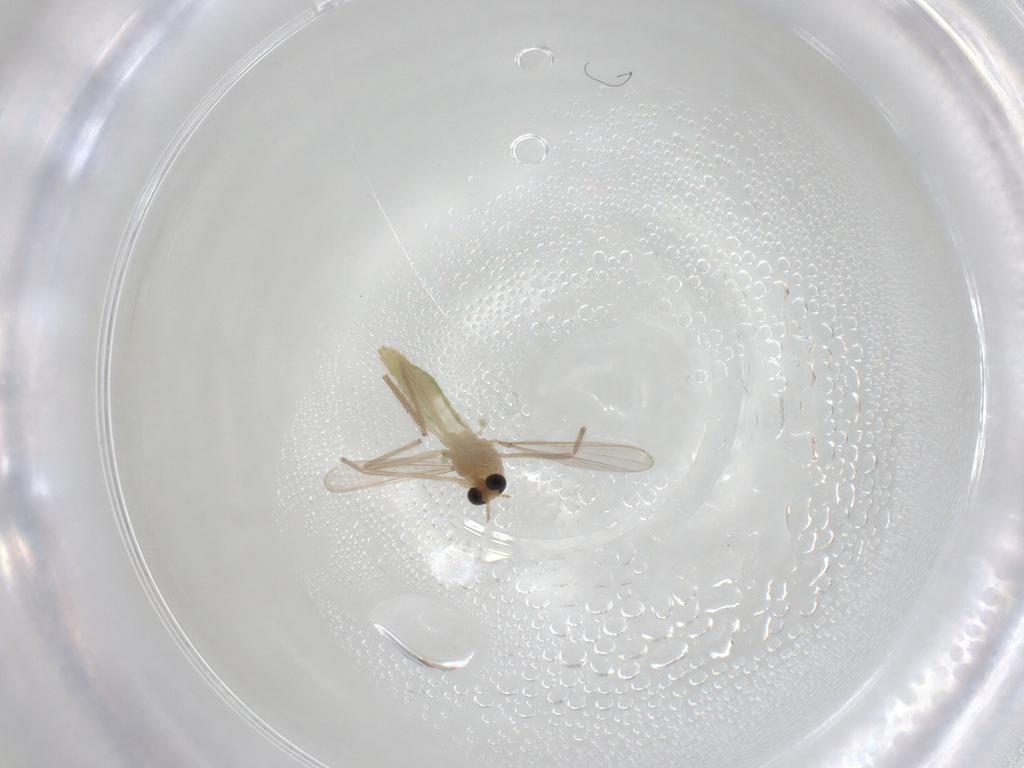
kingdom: Animalia
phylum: Arthropoda
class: Insecta
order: Diptera
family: Chironomidae
